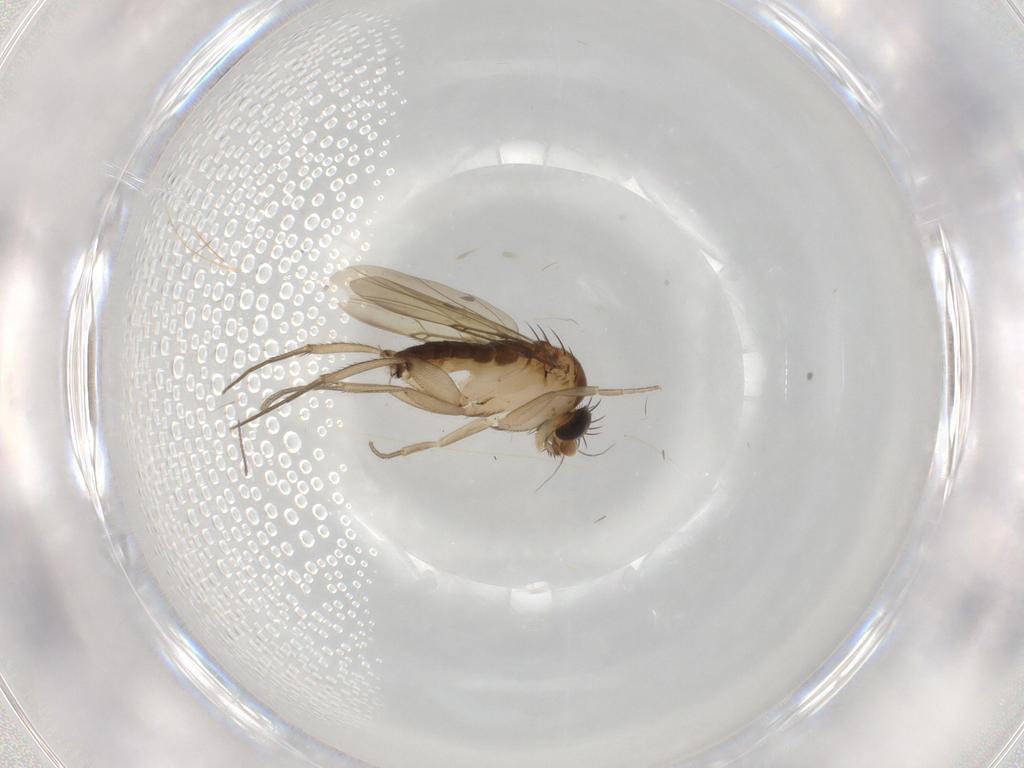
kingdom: Animalia
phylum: Arthropoda
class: Insecta
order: Diptera
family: Phoridae
